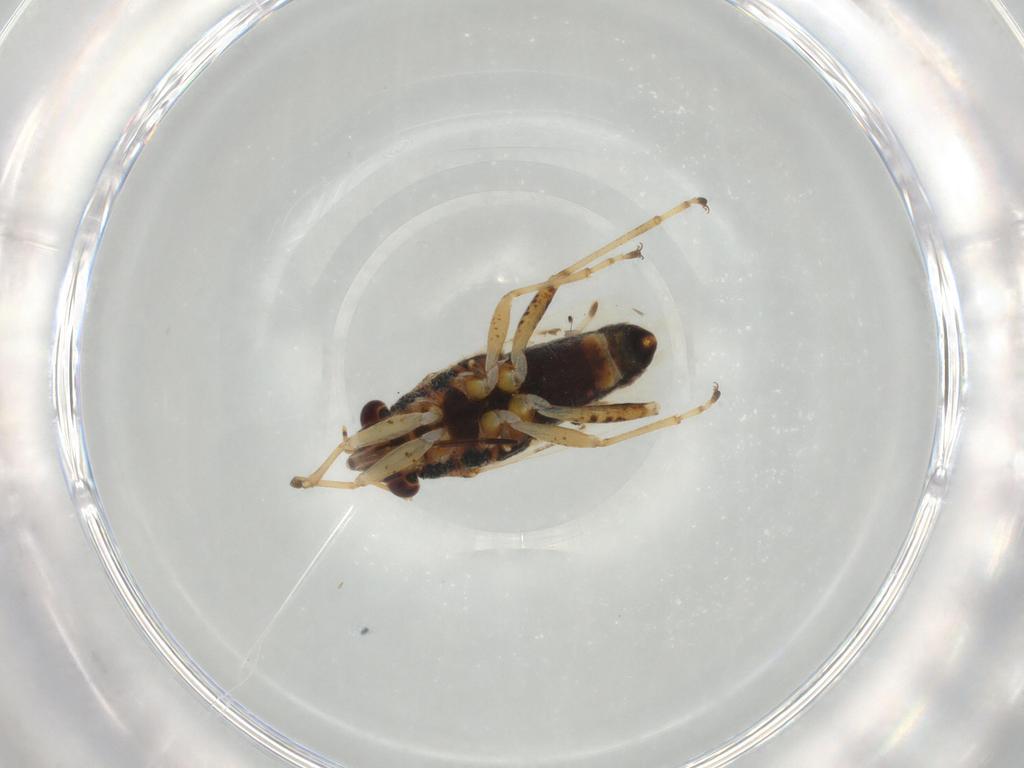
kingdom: Animalia
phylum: Arthropoda
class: Insecta
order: Hemiptera
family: Lygaeidae
